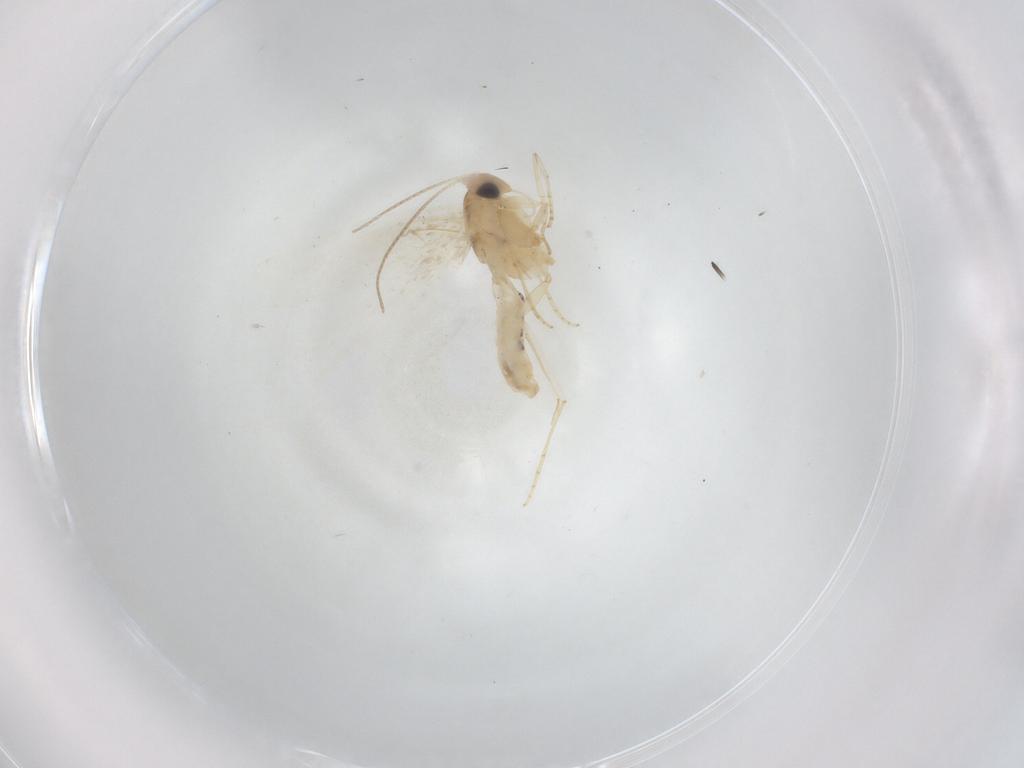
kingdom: Animalia
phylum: Arthropoda
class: Insecta
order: Lepidoptera
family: Bucculatricidae
